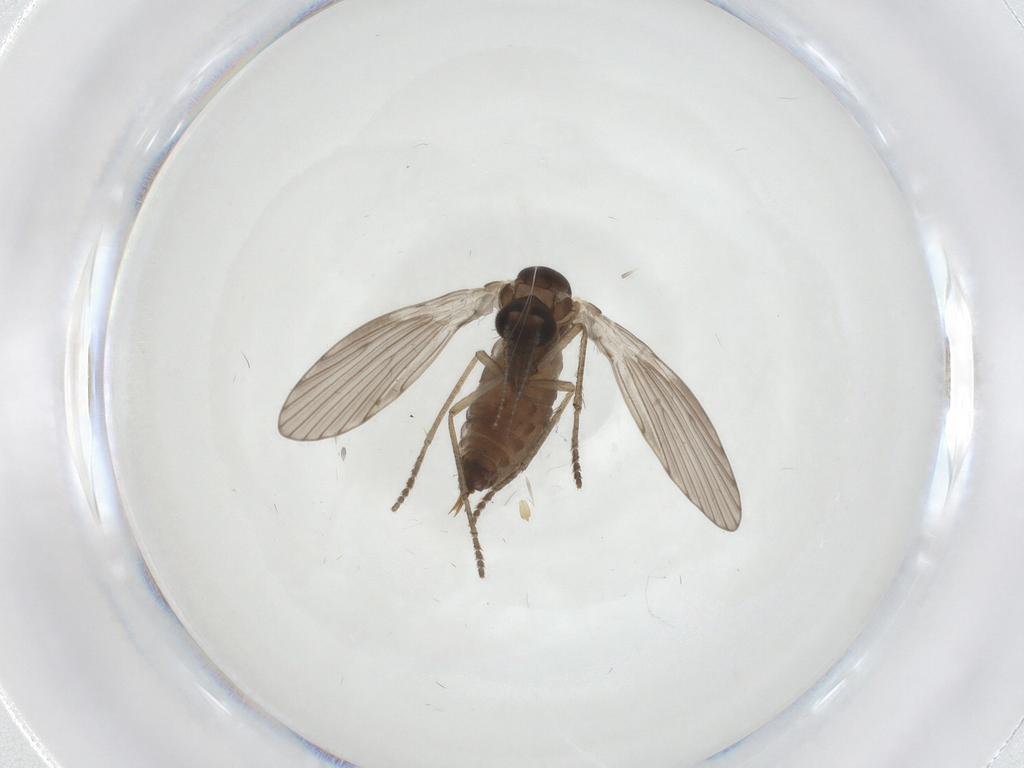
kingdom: Animalia
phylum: Arthropoda
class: Insecta
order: Diptera
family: Psychodidae
